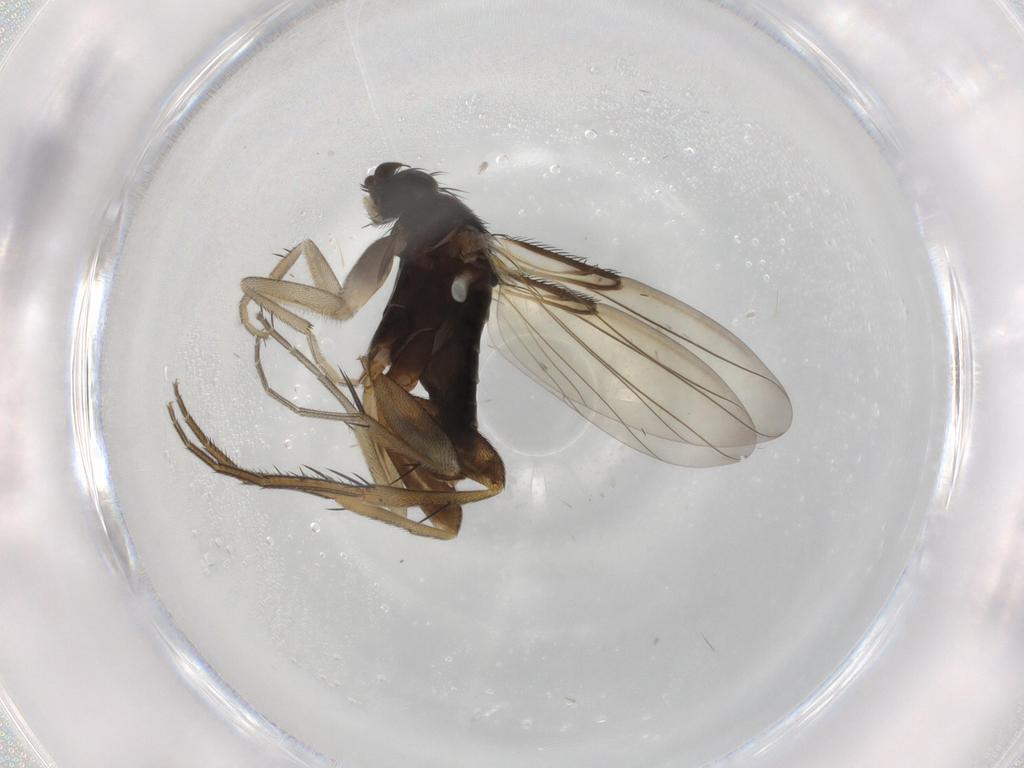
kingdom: Animalia
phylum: Arthropoda
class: Insecta
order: Diptera
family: Phoridae
